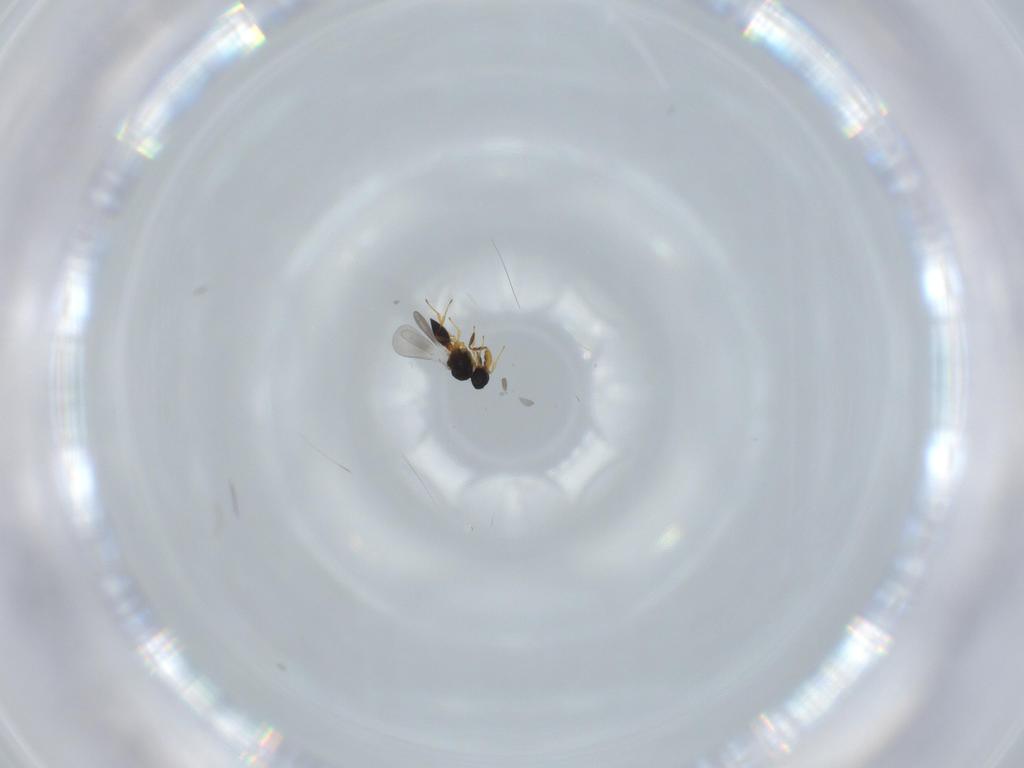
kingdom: Animalia
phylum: Arthropoda
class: Insecta
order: Hymenoptera
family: Platygastridae
